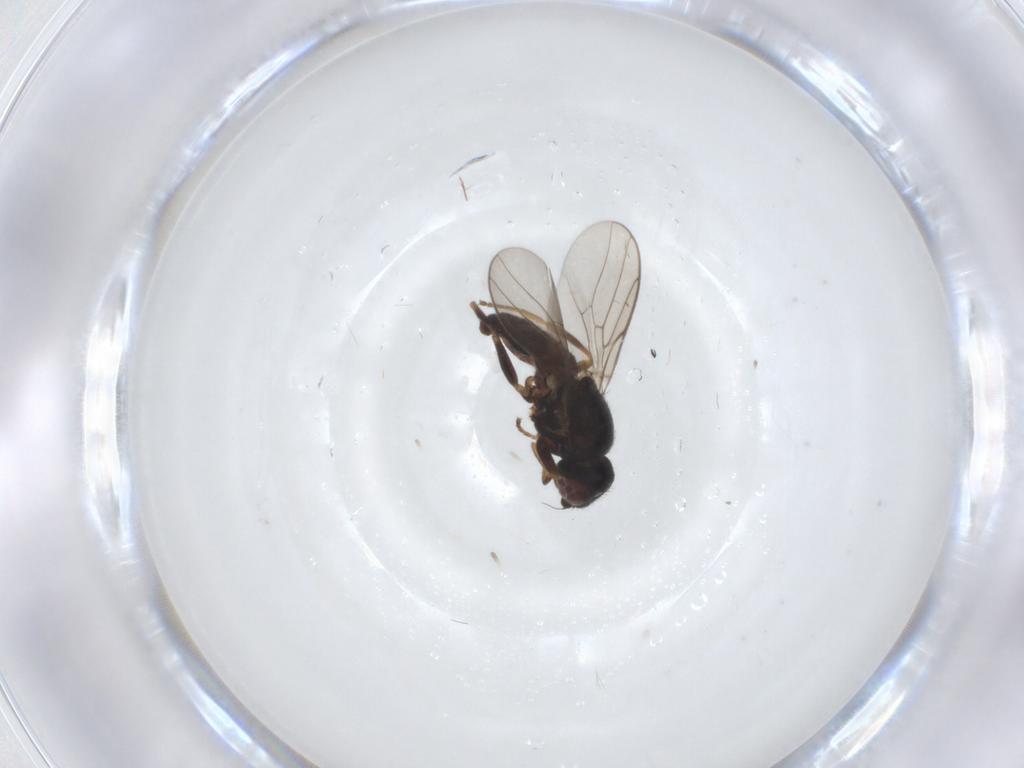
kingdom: Animalia
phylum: Arthropoda
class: Insecta
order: Diptera
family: Chloropidae
